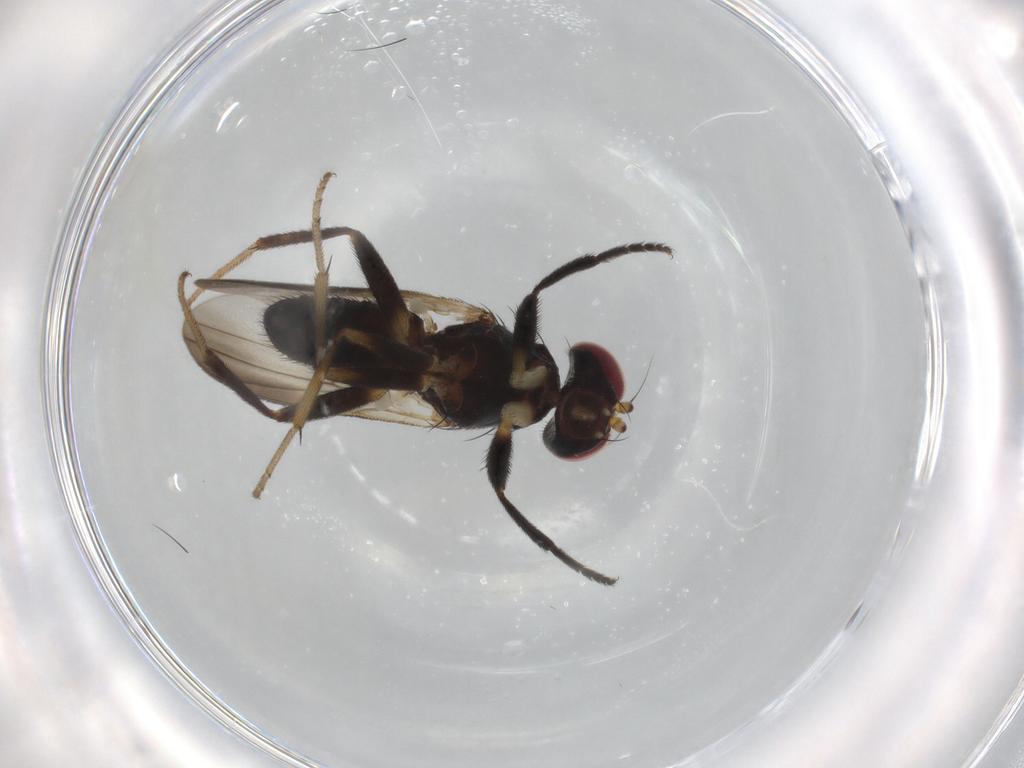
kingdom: Animalia
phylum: Arthropoda
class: Insecta
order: Diptera
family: Clusiidae
